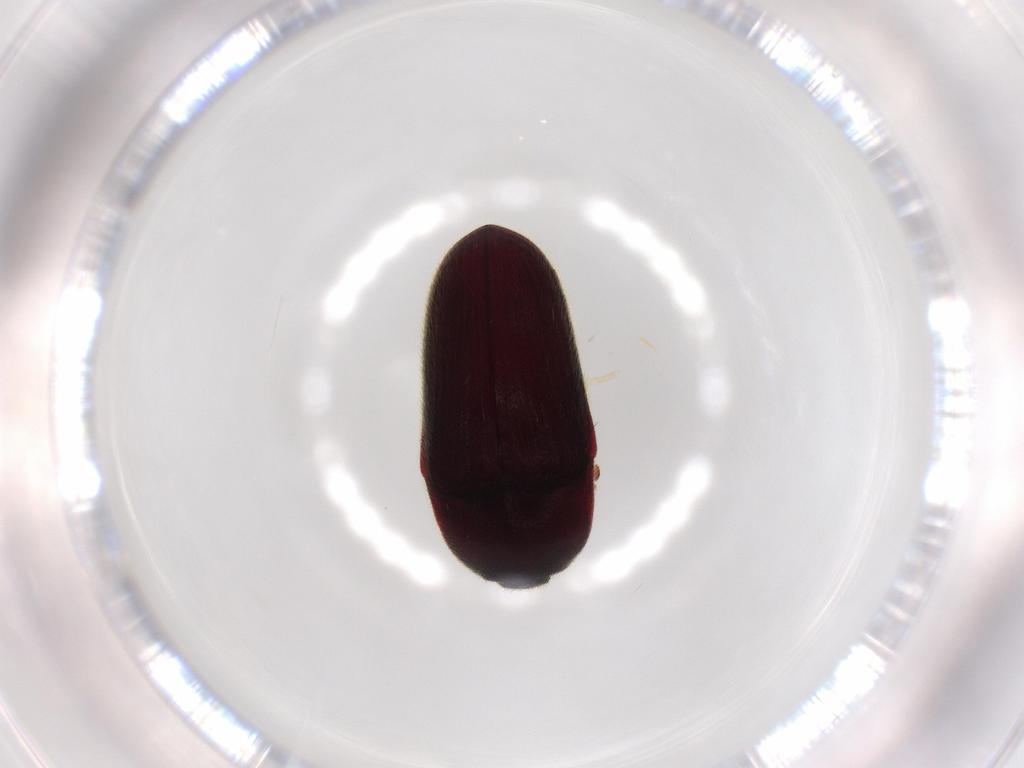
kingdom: Animalia
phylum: Arthropoda
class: Insecta
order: Coleoptera
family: Throscidae
